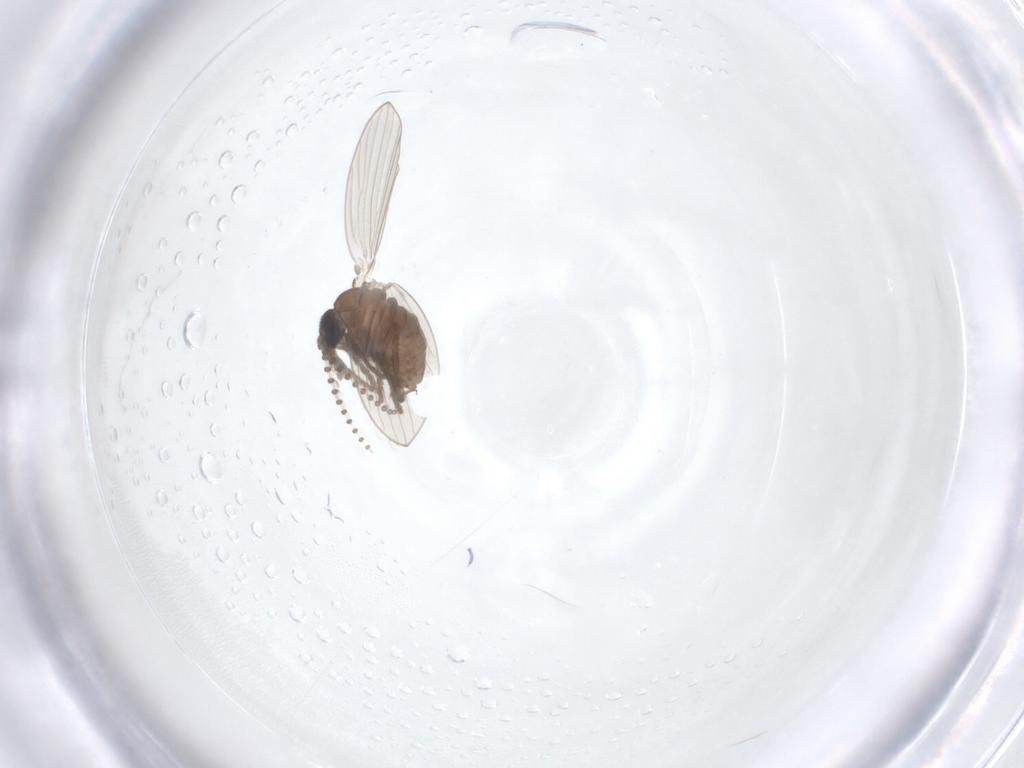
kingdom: Animalia
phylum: Arthropoda
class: Insecta
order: Diptera
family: Psychodidae
